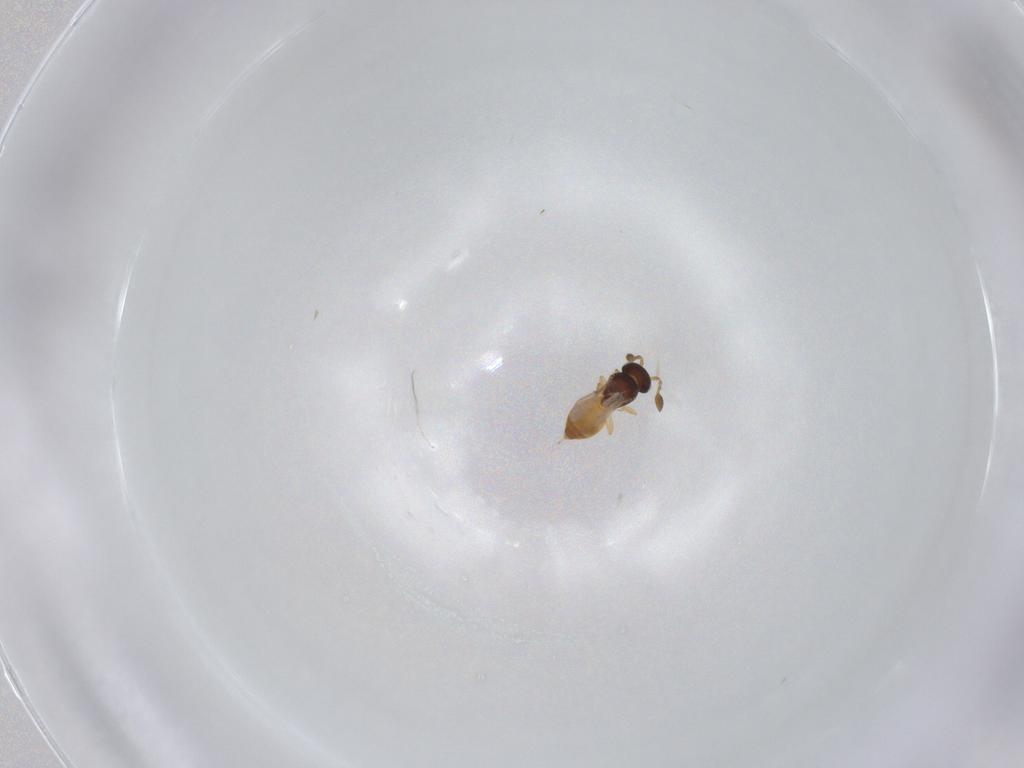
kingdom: Animalia
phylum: Arthropoda
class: Insecta
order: Hymenoptera
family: Scelionidae
